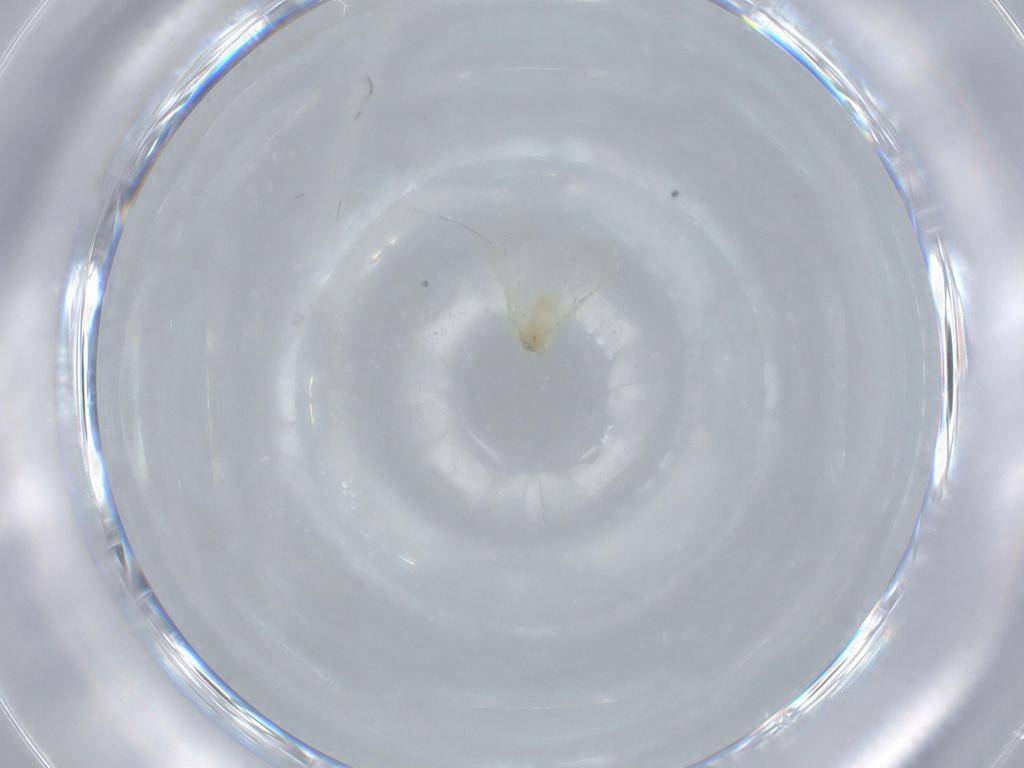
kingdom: Animalia
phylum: Arthropoda
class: Insecta
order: Hemiptera
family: Aleyrodidae
